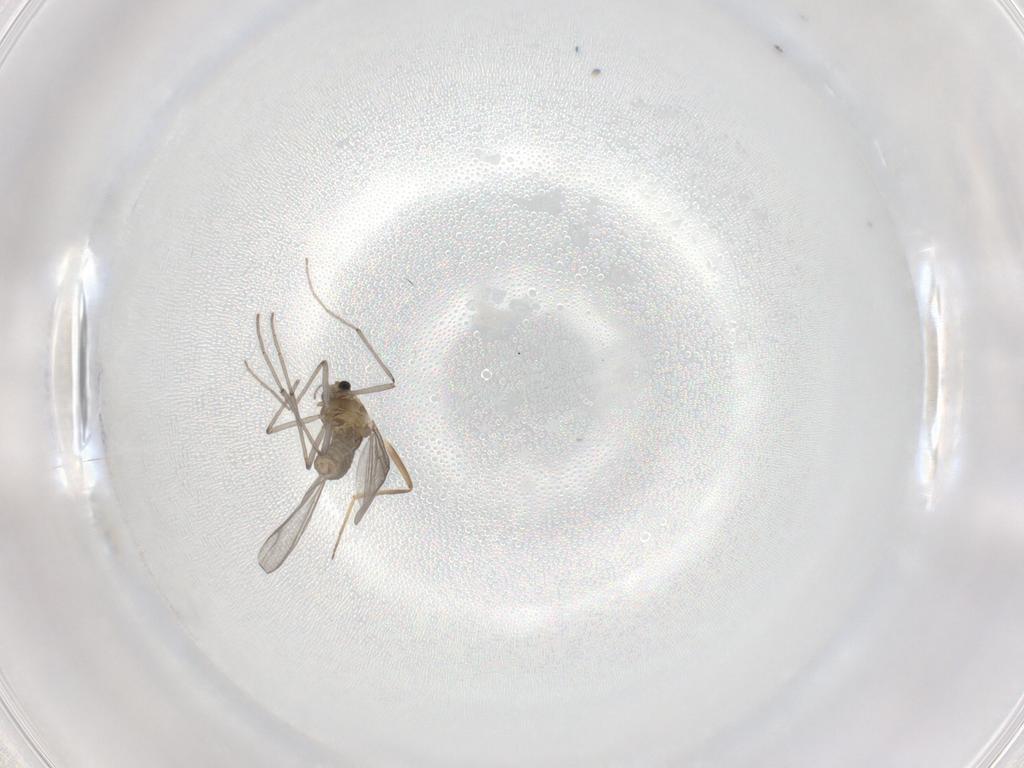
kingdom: Animalia
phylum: Arthropoda
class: Insecta
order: Diptera
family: Chironomidae
